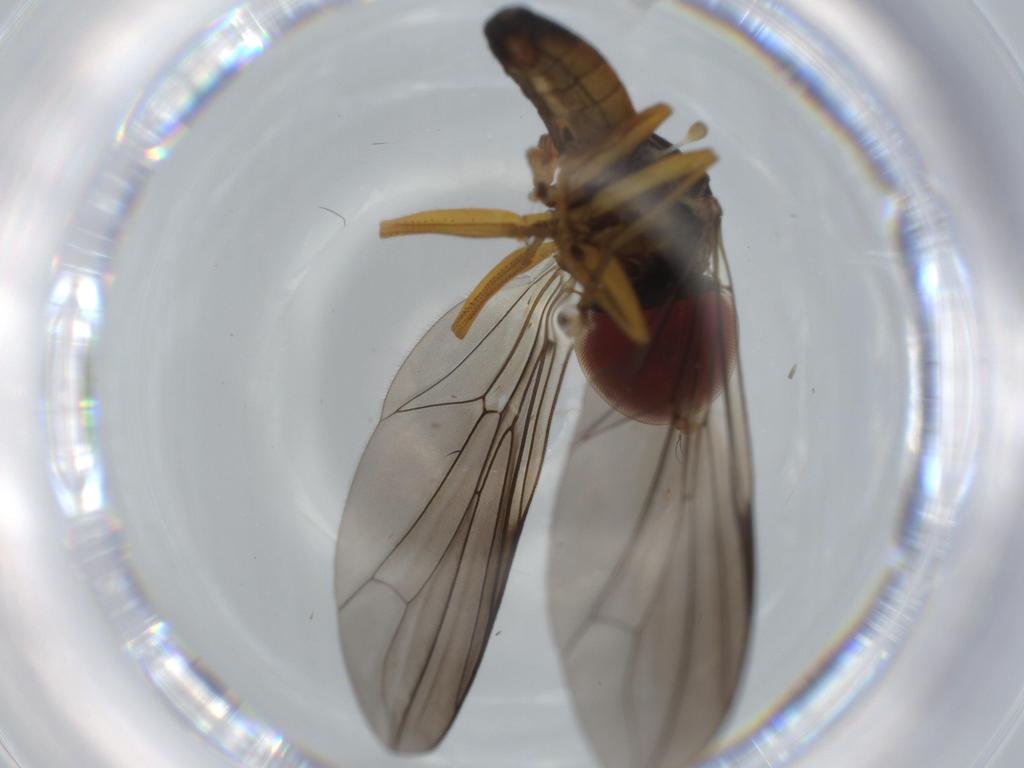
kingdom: Animalia
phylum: Arthropoda
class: Insecta
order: Diptera
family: Pipunculidae
